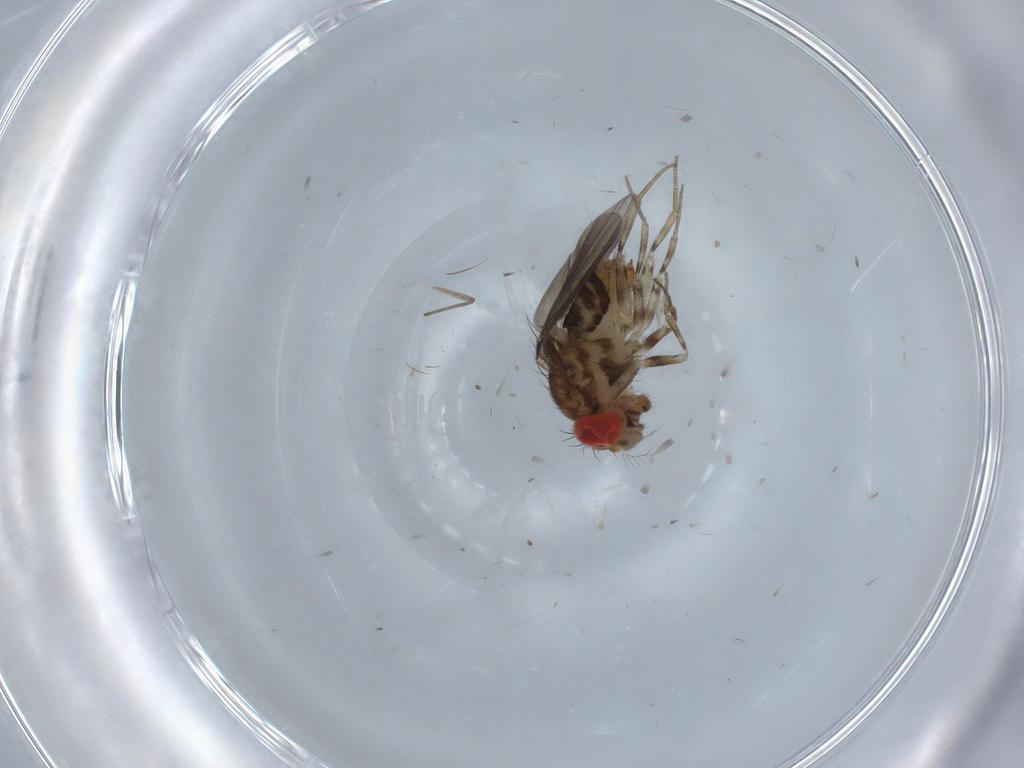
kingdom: Animalia
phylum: Arthropoda
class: Insecta
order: Diptera
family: Drosophilidae
